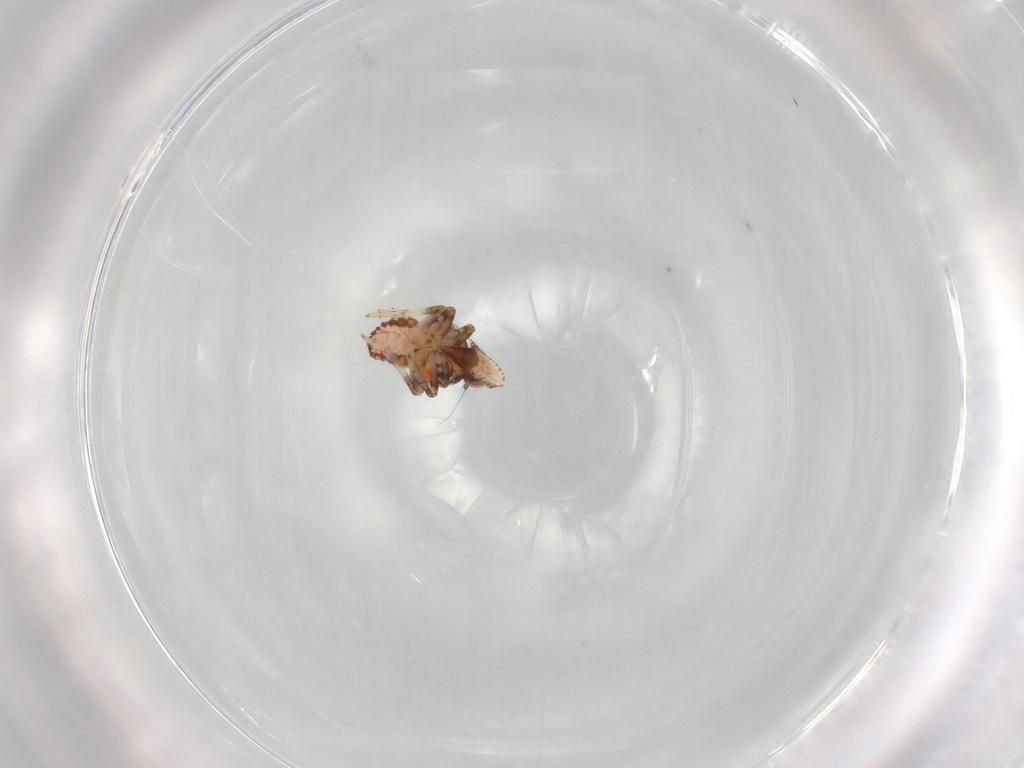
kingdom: Animalia
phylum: Arthropoda
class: Insecta
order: Hemiptera
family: Tropiduchidae
